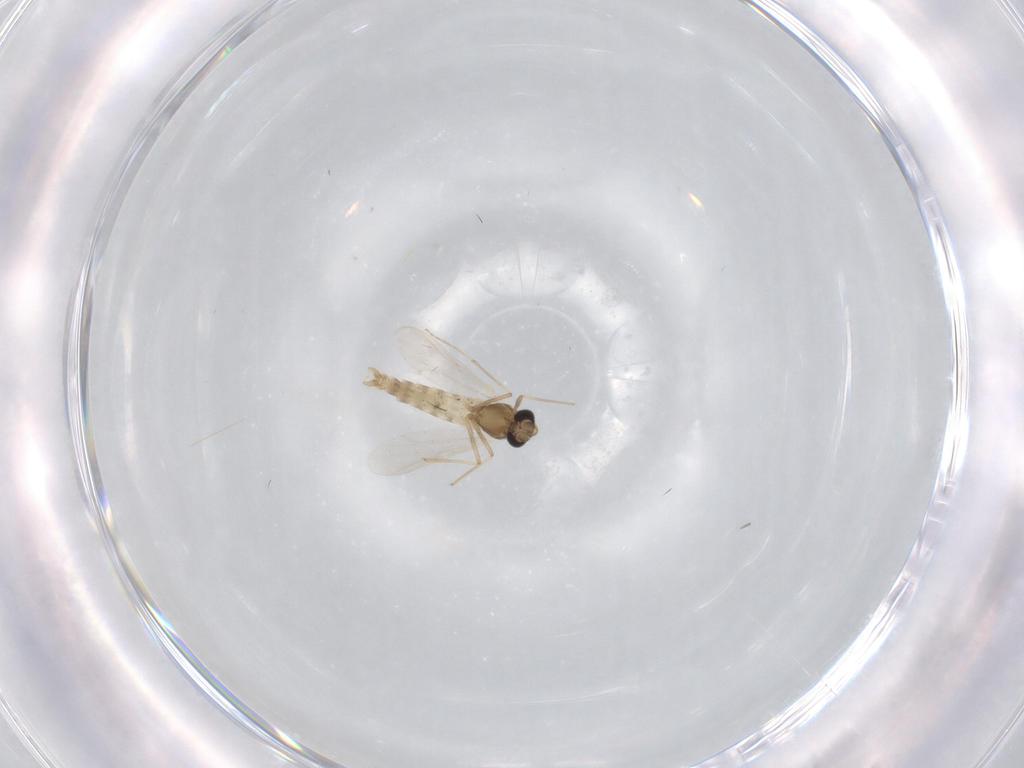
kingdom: Animalia
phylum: Arthropoda
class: Insecta
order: Diptera
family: Chironomidae
